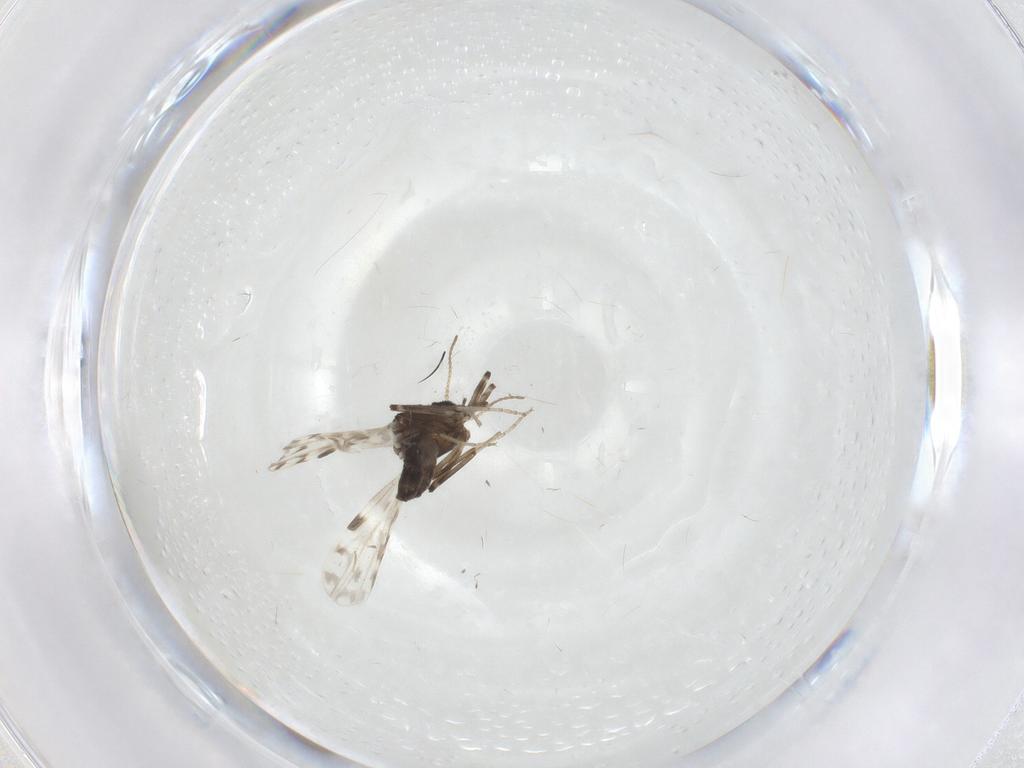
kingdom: Animalia
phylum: Arthropoda
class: Insecta
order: Diptera
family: Ceratopogonidae
